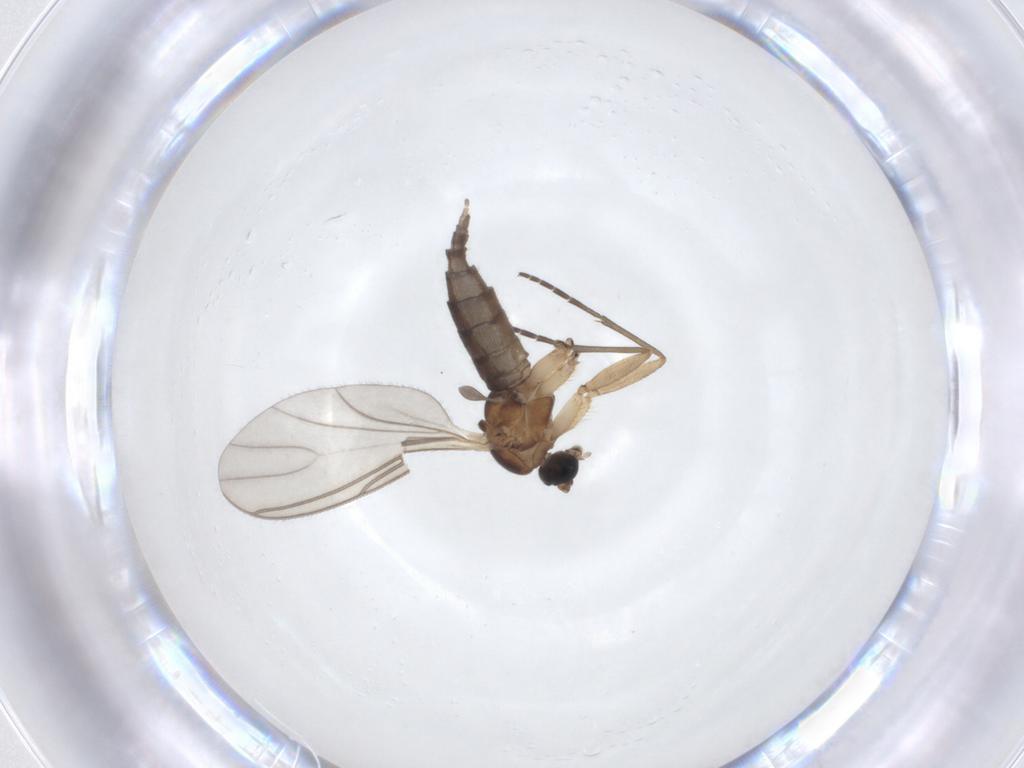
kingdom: Animalia
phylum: Arthropoda
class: Insecta
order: Diptera
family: Sciaridae
